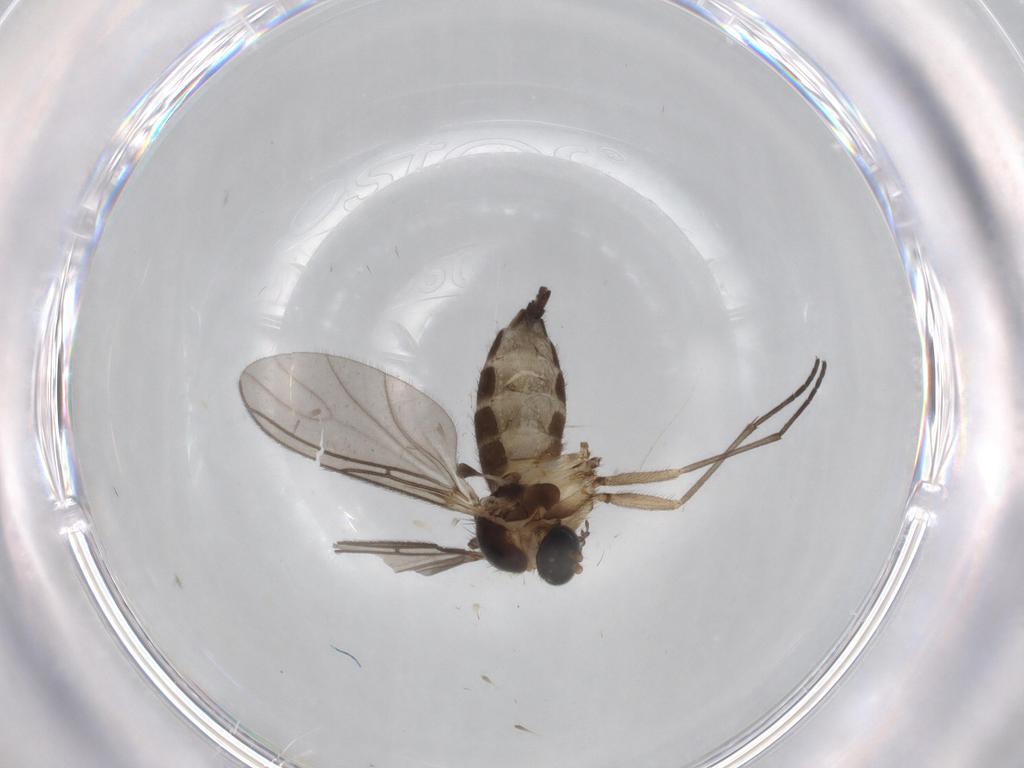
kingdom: Animalia
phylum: Arthropoda
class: Insecta
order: Diptera
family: Sciaridae
